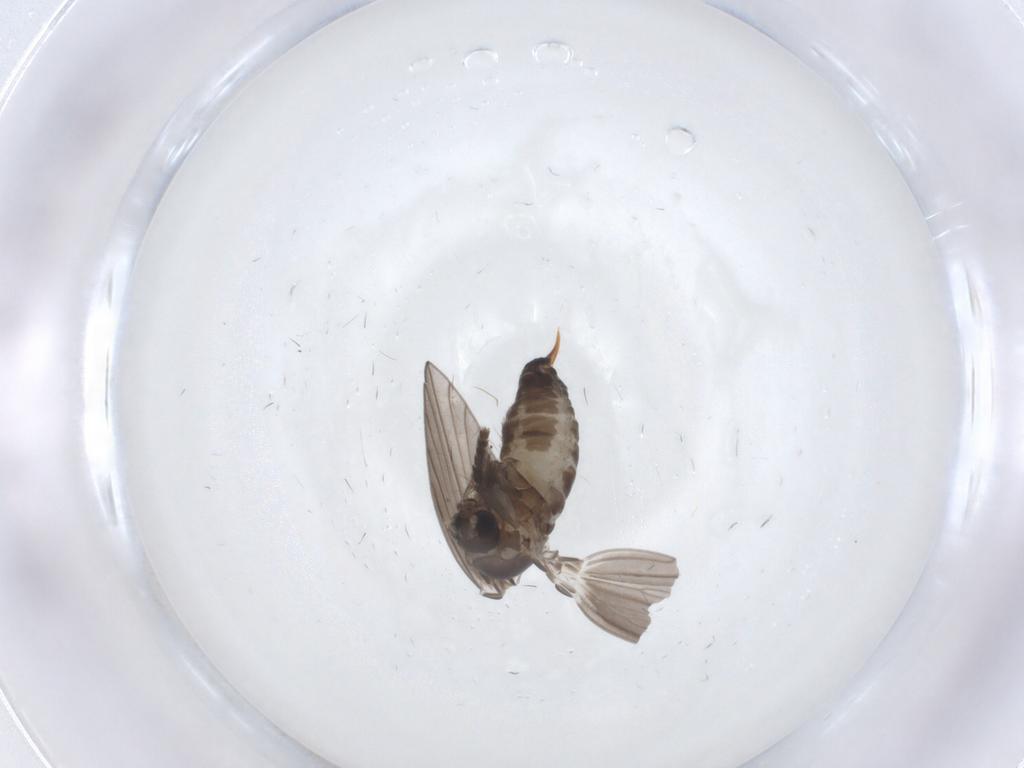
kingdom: Animalia
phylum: Arthropoda
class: Insecta
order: Diptera
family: Psychodidae
